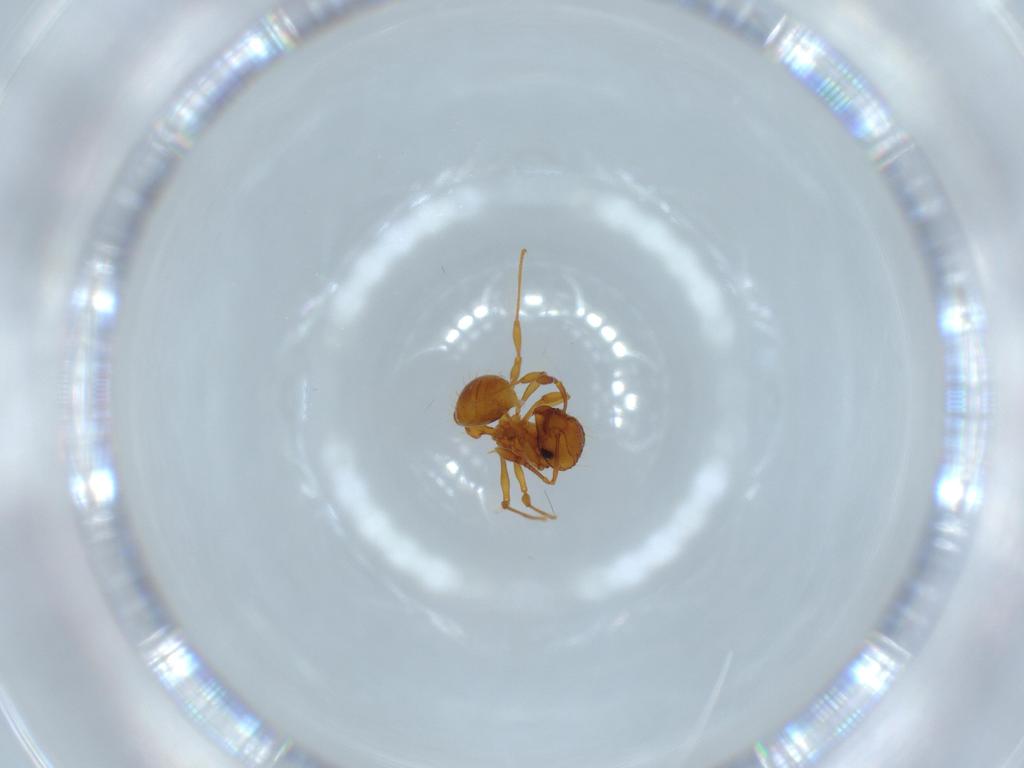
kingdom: Animalia
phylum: Arthropoda
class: Insecta
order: Hymenoptera
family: Formicidae
